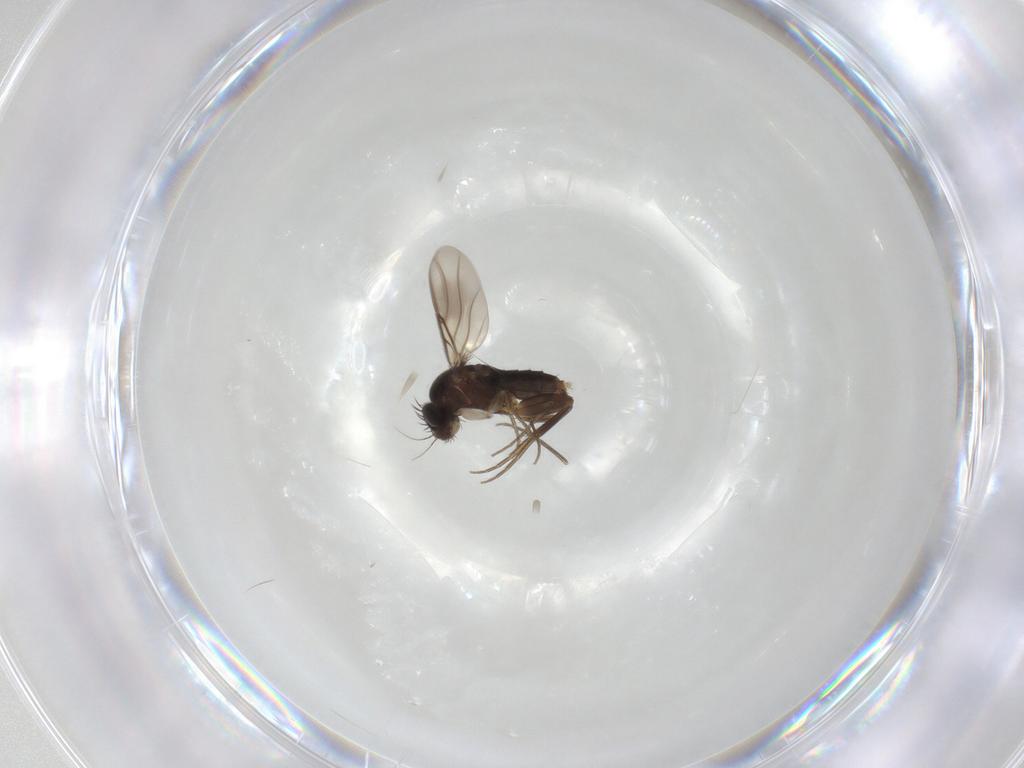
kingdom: Animalia
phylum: Arthropoda
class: Insecta
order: Diptera
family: Phoridae
